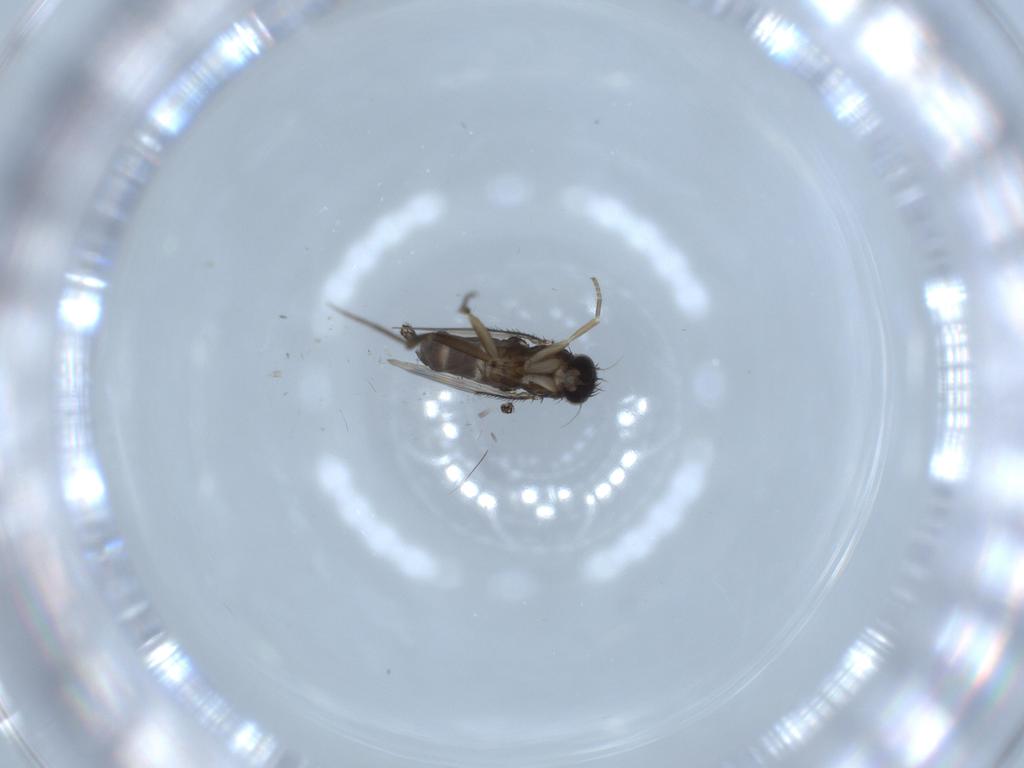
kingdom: Animalia
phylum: Arthropoda
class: Insecta
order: Diptera
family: Phoridae
